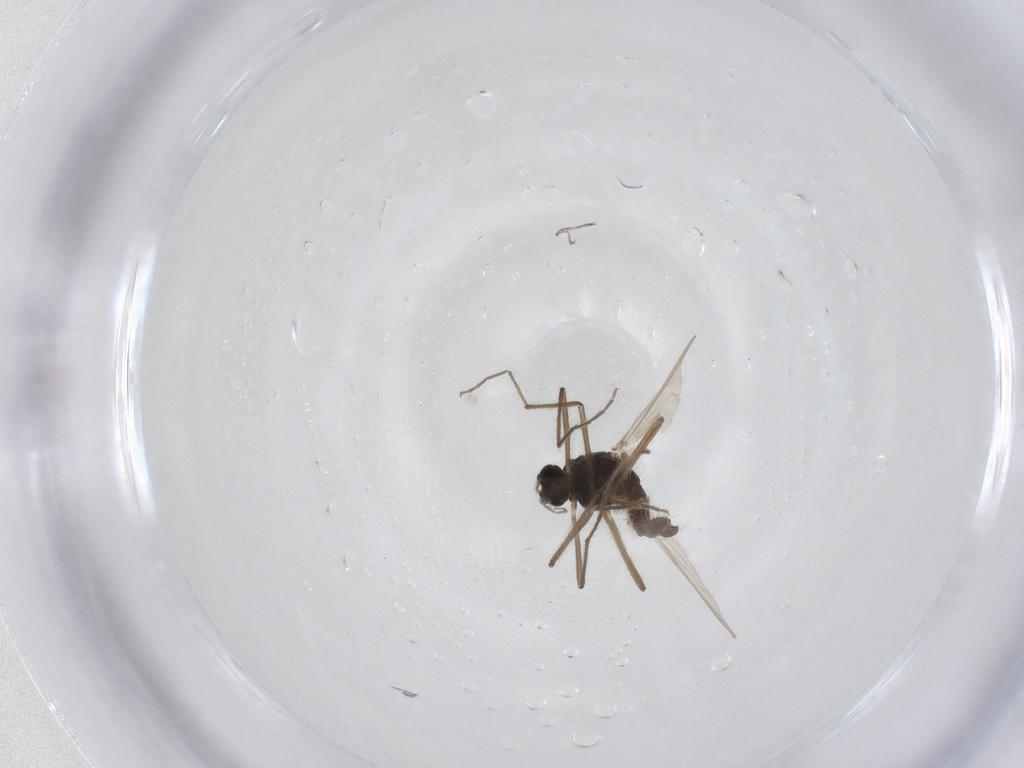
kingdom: Animalia
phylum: Arthropoda
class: Insecta
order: Diptera
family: Chironomidae
